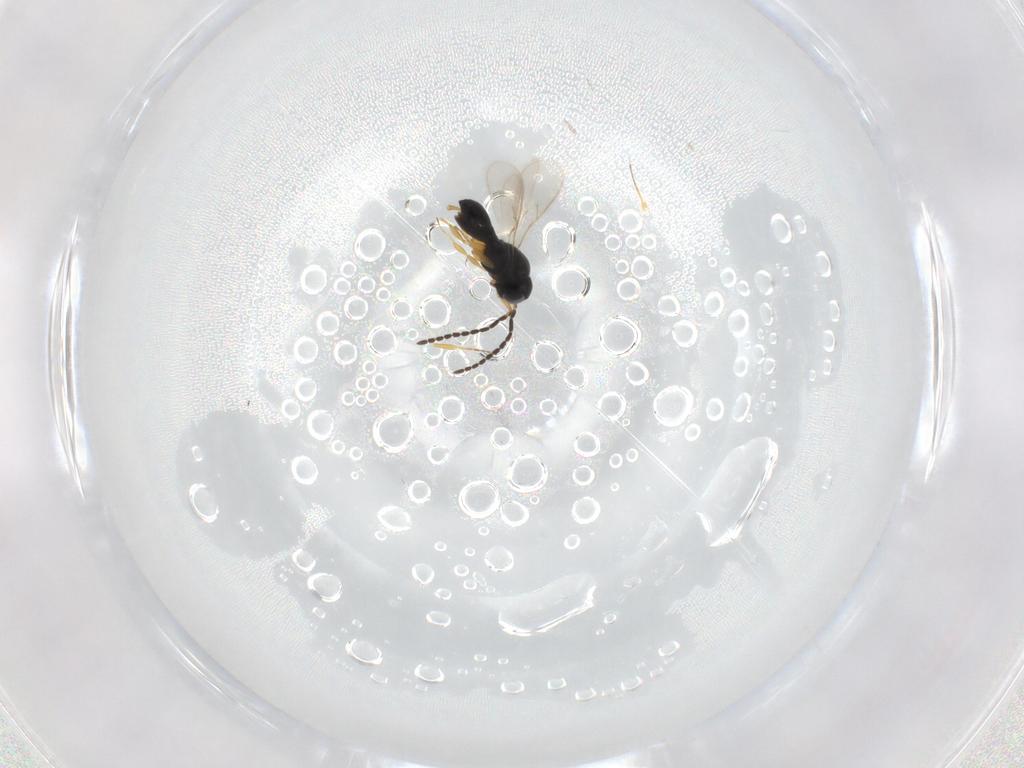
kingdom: Animalia
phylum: Arthropoda
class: Insecta
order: Hymenoptera
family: Scelionidae
